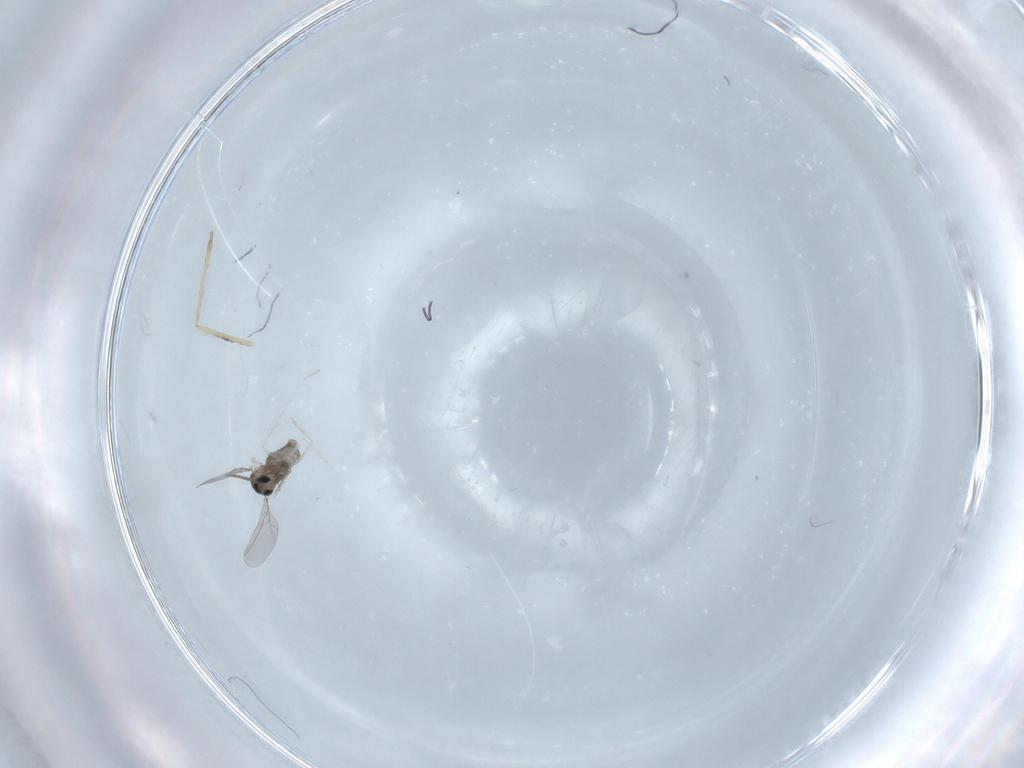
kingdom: Animalia
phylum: Arthropoda
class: Insecta
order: Diptera
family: Cecidomyiidae
